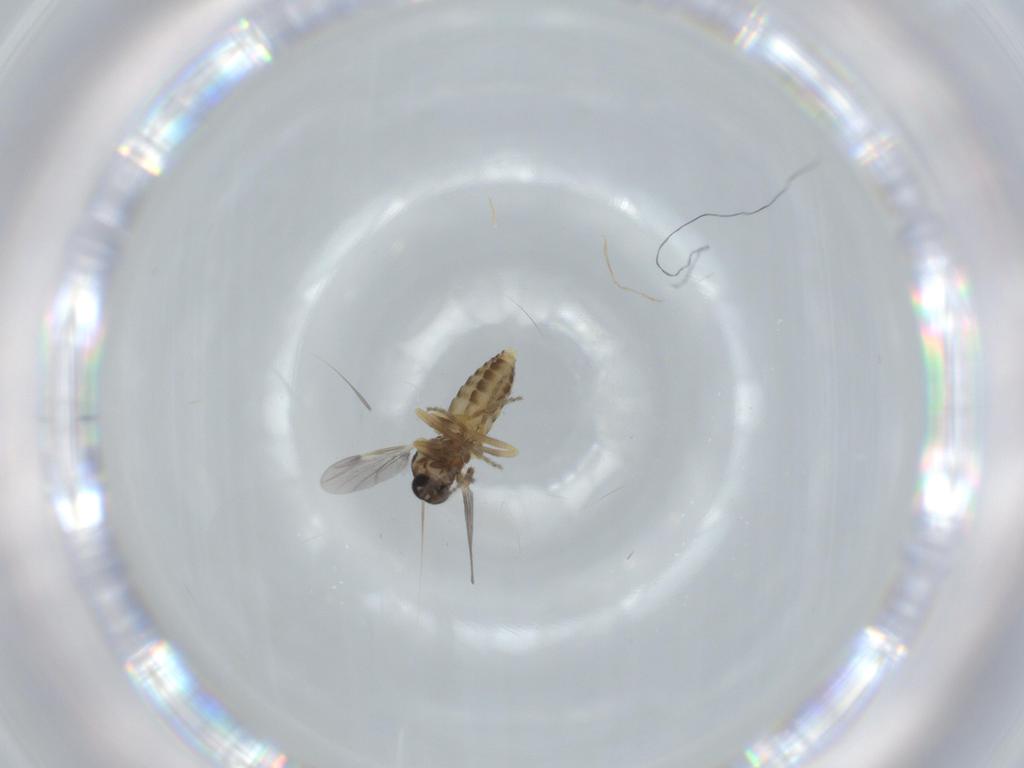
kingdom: Animalia
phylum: Arthropoda
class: Insecta
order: Diptera
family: Ceratopogonidae
